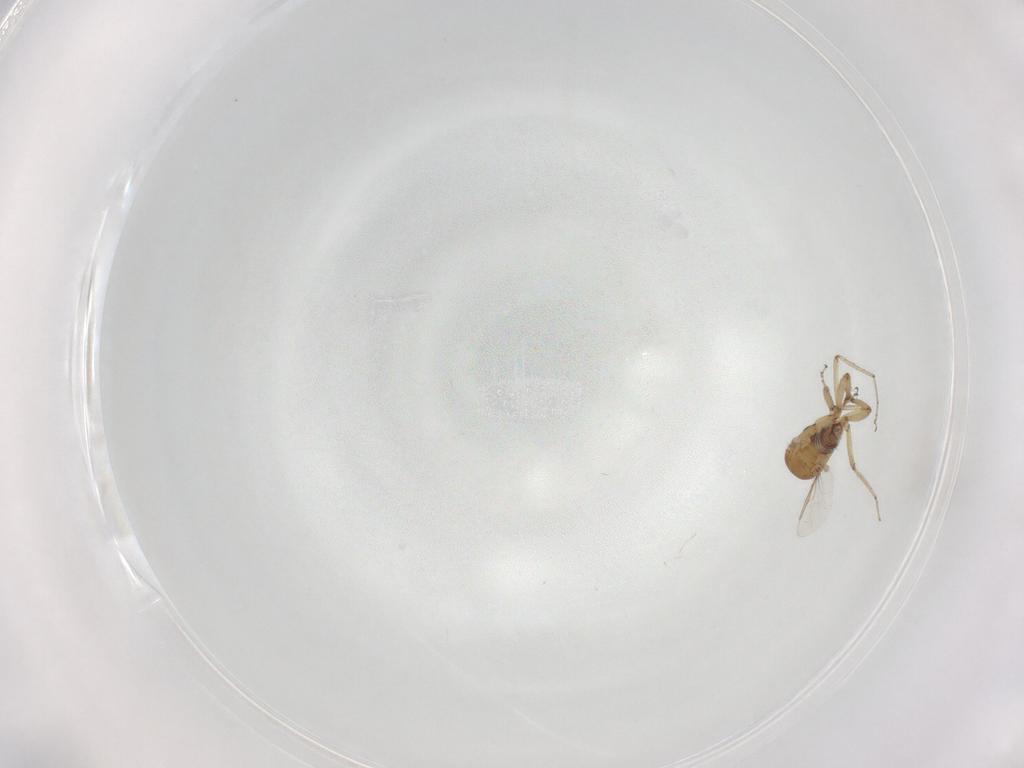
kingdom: Animalia
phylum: Arthropoda
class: Insecta
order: Diptera
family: Ceratopogonidae
